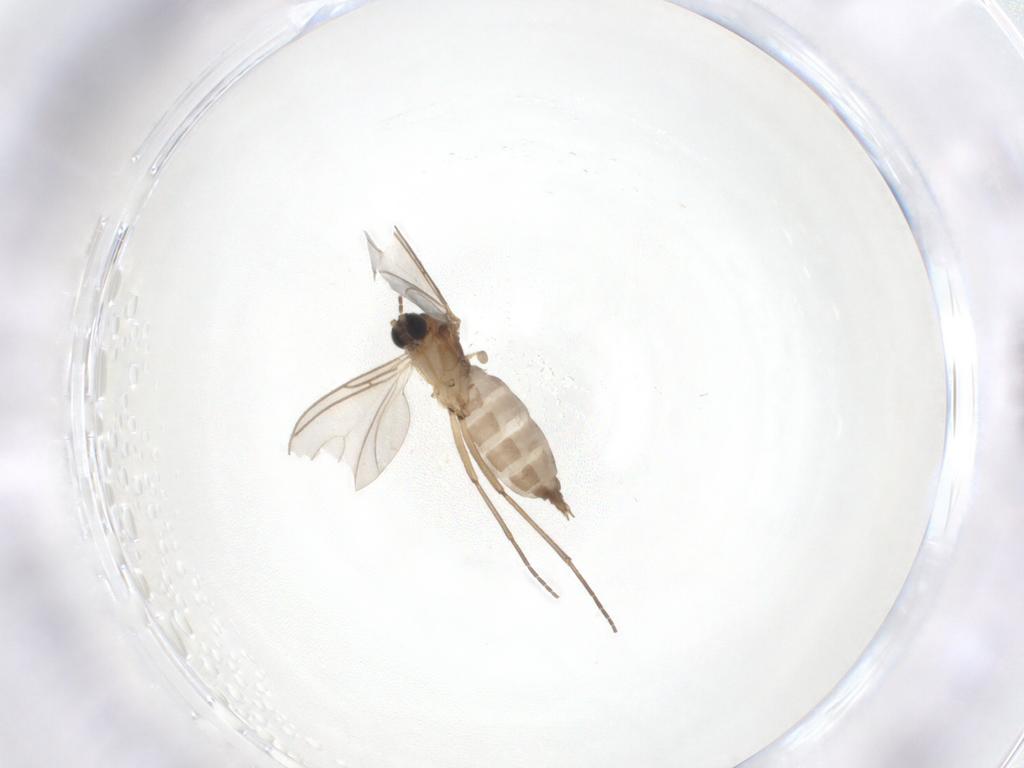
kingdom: Animalia
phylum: Arthropoda
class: Insecta
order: Diptera
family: Sciaridae
